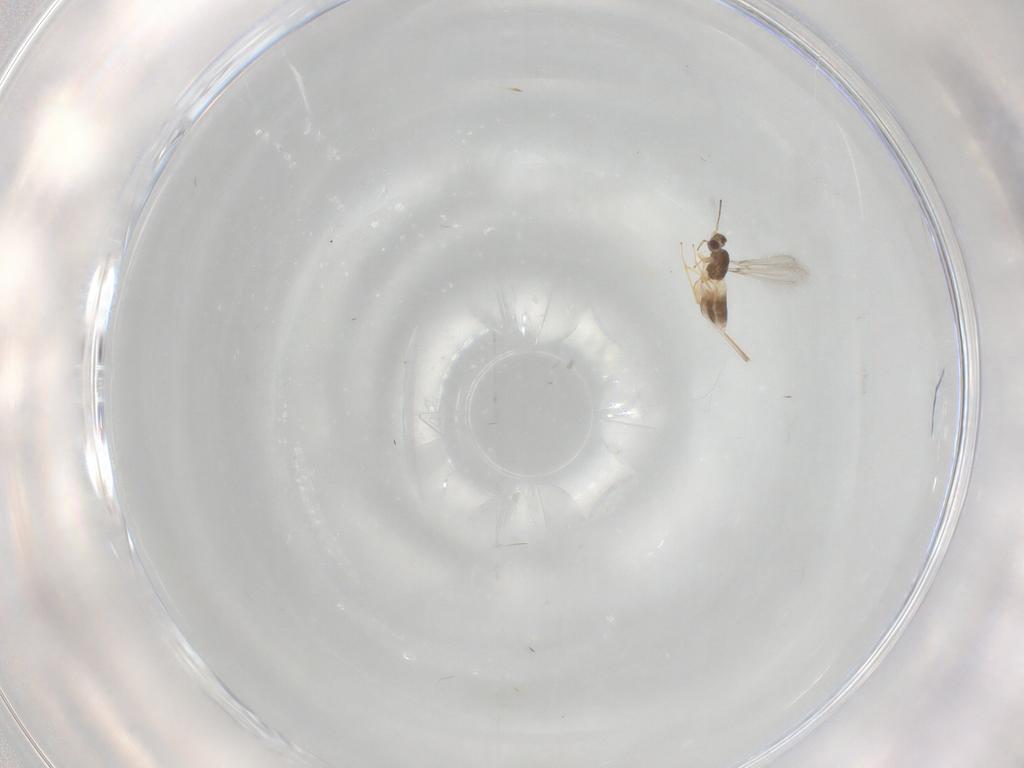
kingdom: Animalia
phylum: Arthropoda
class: Insecta
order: Hymenoptera
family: Mymaridae
